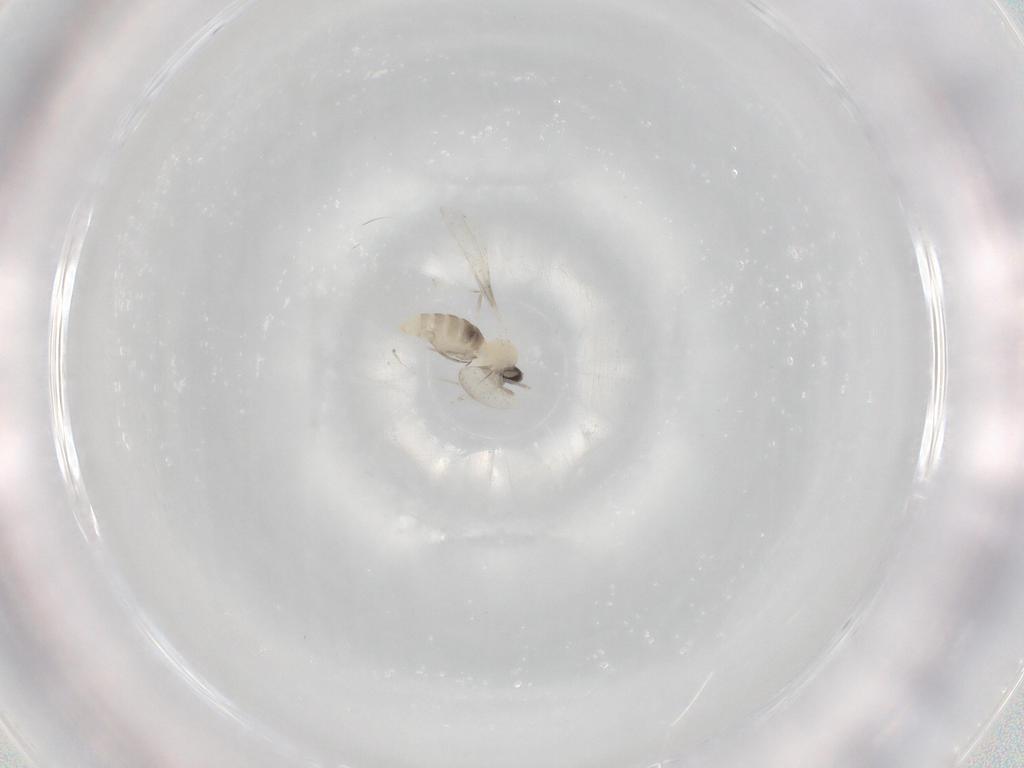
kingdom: Animalia
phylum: Arthropoda
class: Insecta
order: Diptera
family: Cecidomyiidae
